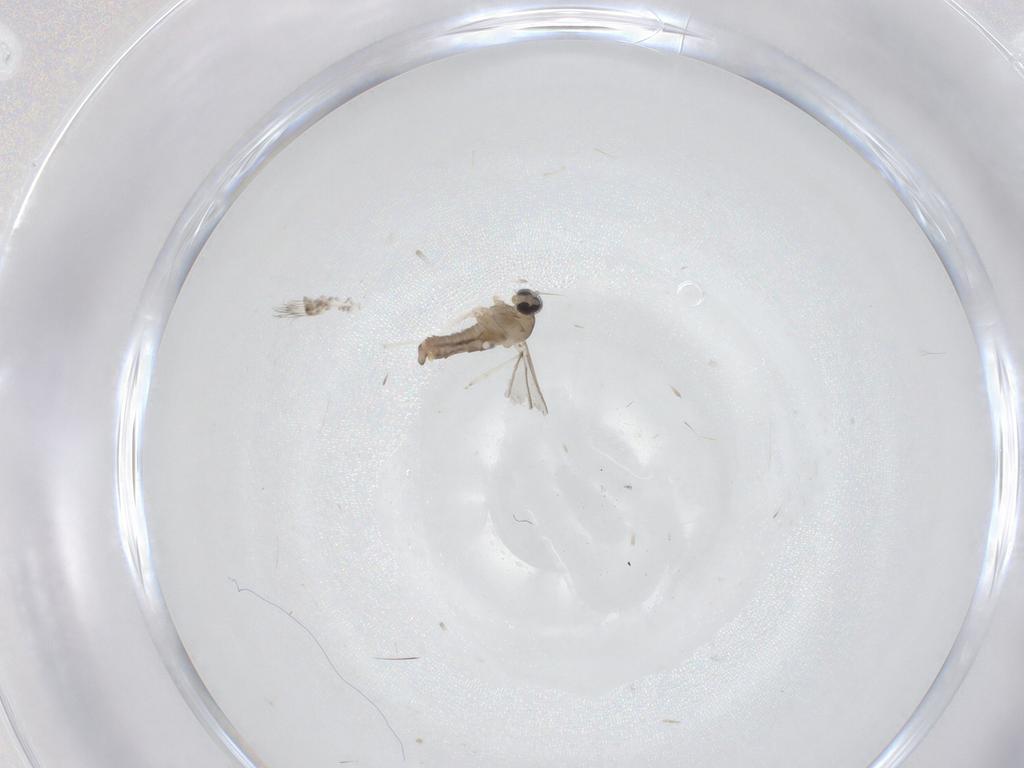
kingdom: Animalia
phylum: Arthropoda
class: Insecta
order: Diptera
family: Cecidomyiidae
